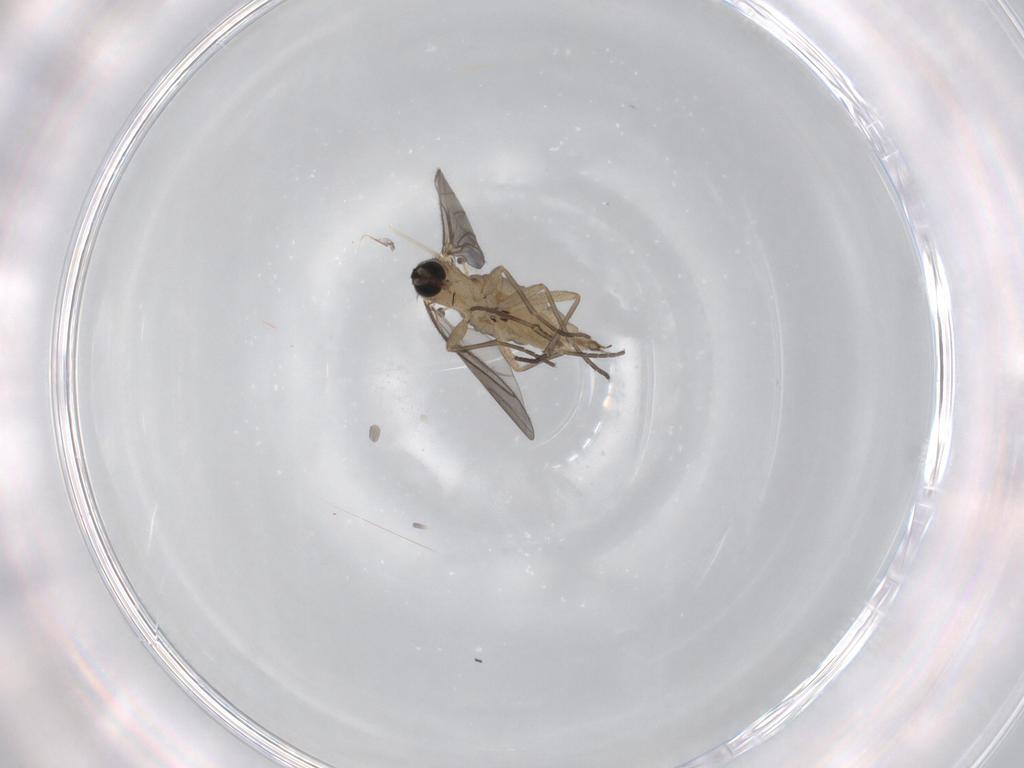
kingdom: Animalia
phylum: Arthropoda
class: Insecta
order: Diptera
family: Sciaridae
